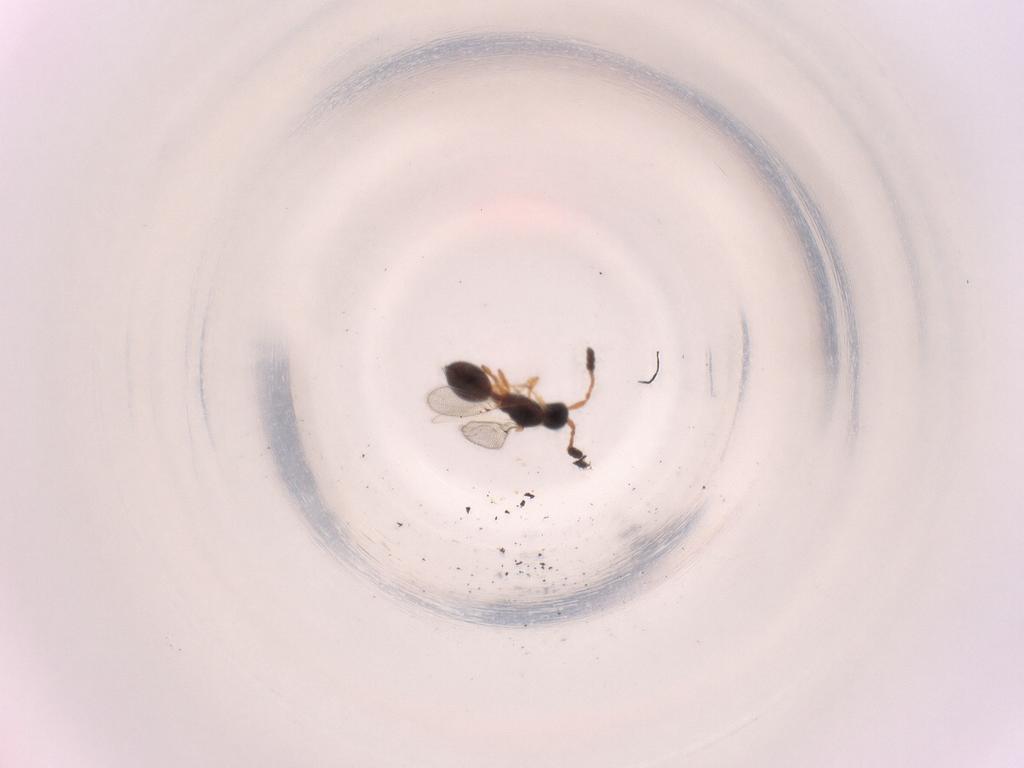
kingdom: Animalia
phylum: Arthropoda
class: Insecta
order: Hymenoptera
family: Diapriidae
